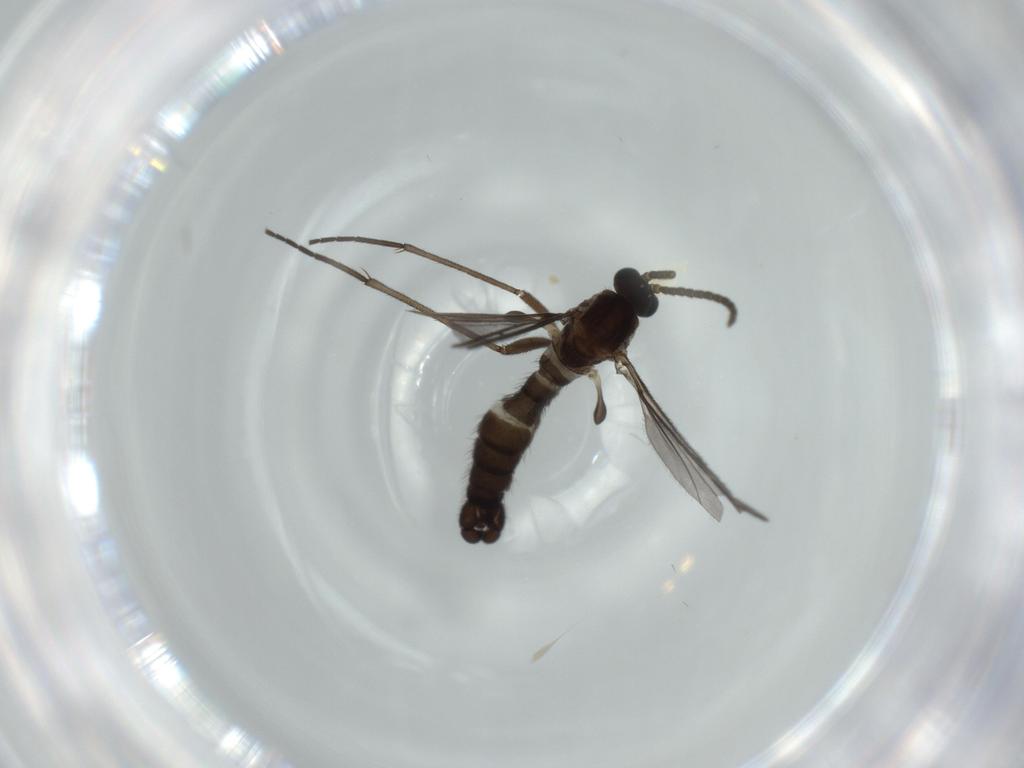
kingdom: Animalia
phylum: Arthropoda
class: Insecta
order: Diptera
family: Sciaridae
